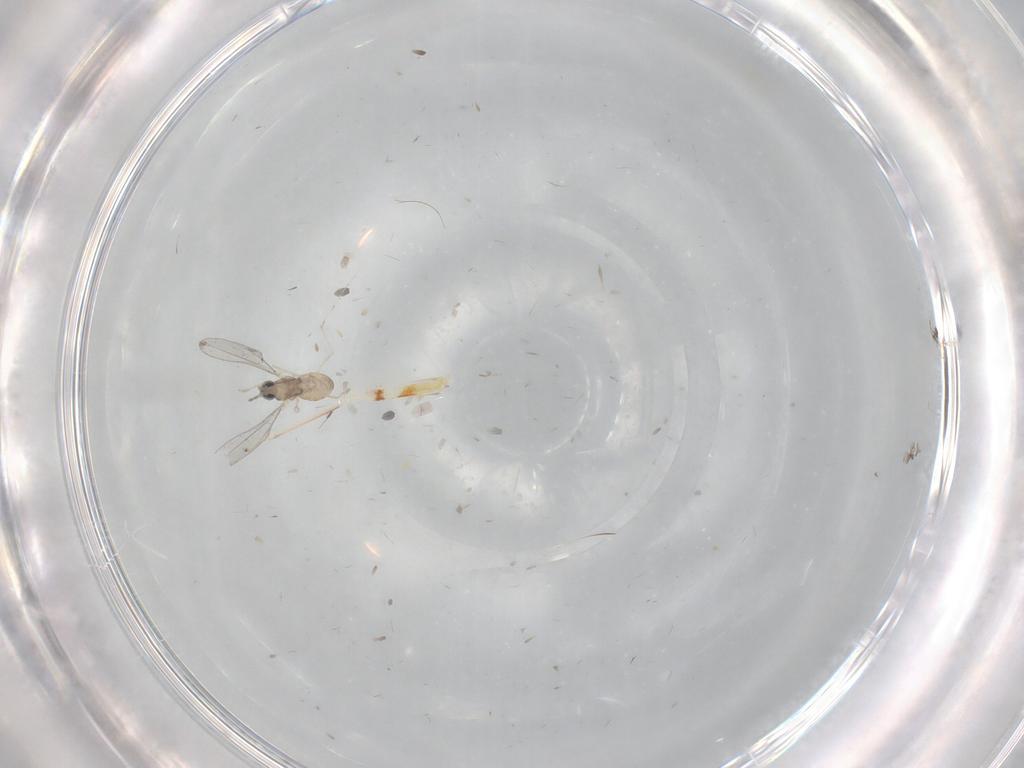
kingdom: Animalia
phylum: Arthropoda
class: Insecta
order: Diptera
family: Cecidomyiidae
